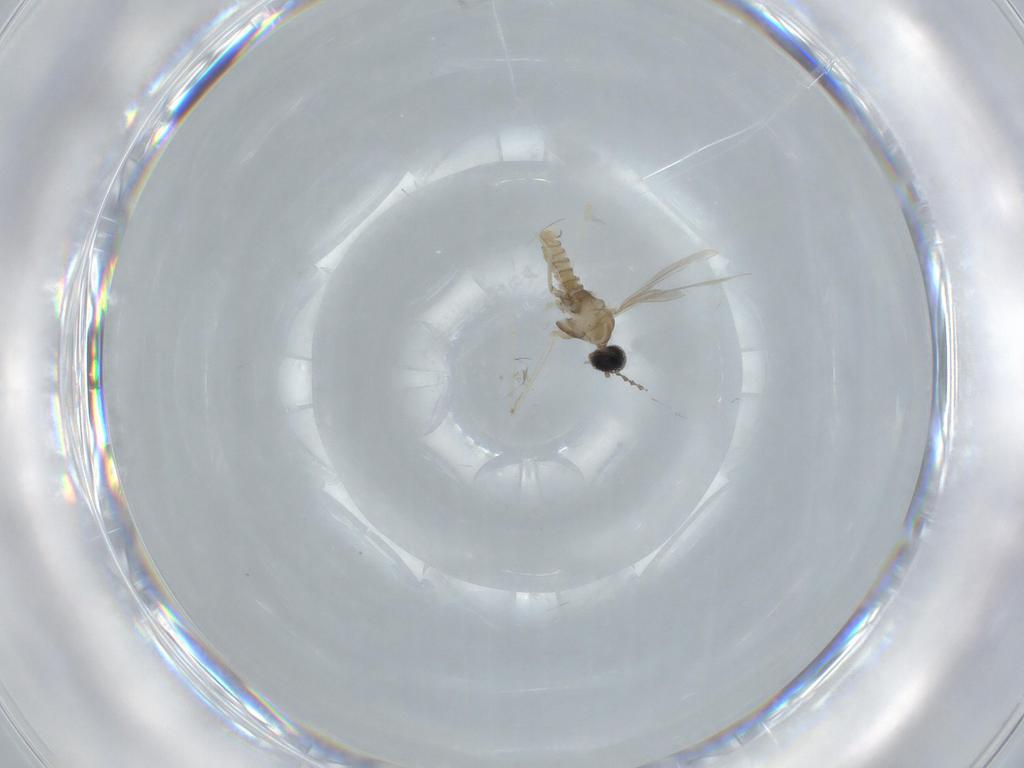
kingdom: Animalia
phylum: Arthropoda
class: Insecta
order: Diptera
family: Cecidomyiidae
